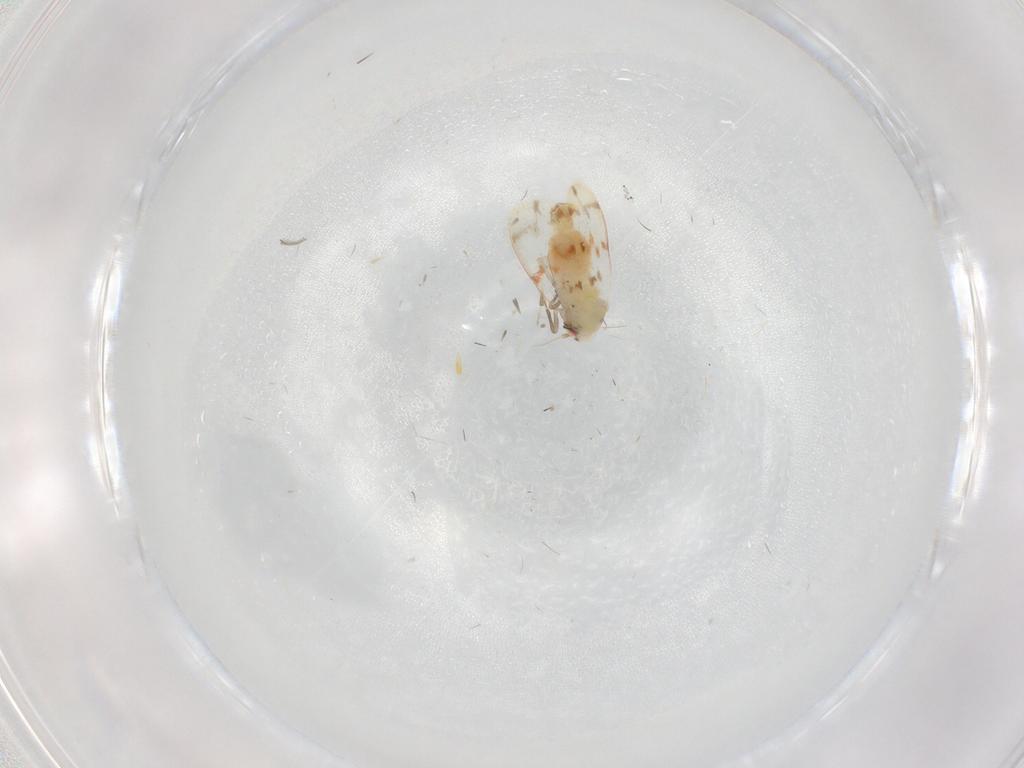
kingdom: Animalia
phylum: Arthropoda
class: Insecta
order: Hemiptera
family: Aleyrodidae
